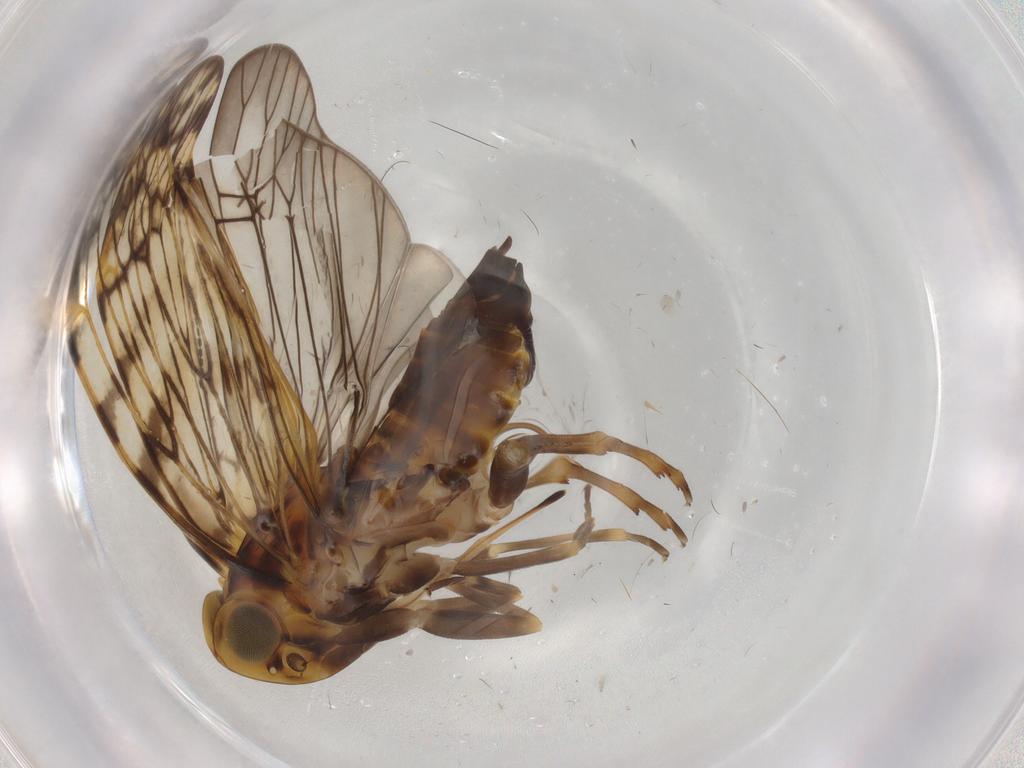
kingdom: Animalia
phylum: Arthropoda
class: Insecta
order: Hemiptera
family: Cixiidae
